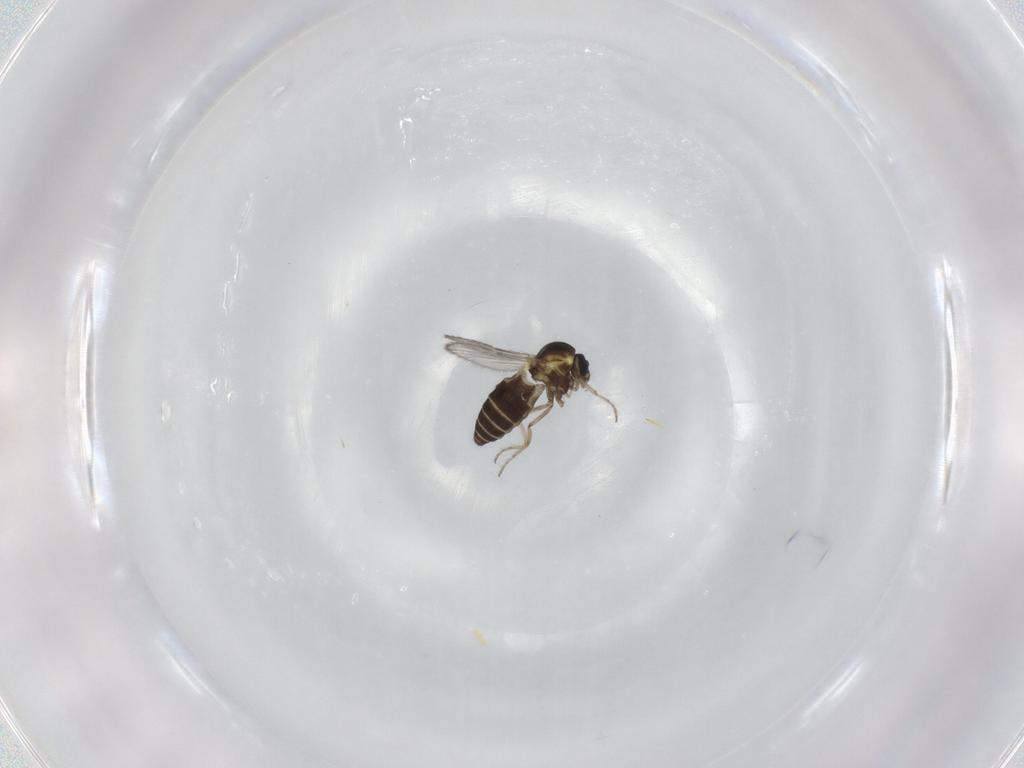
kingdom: Animalia
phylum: Arthropoda
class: Insecta
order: Diptera
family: Ceratopogonidae
